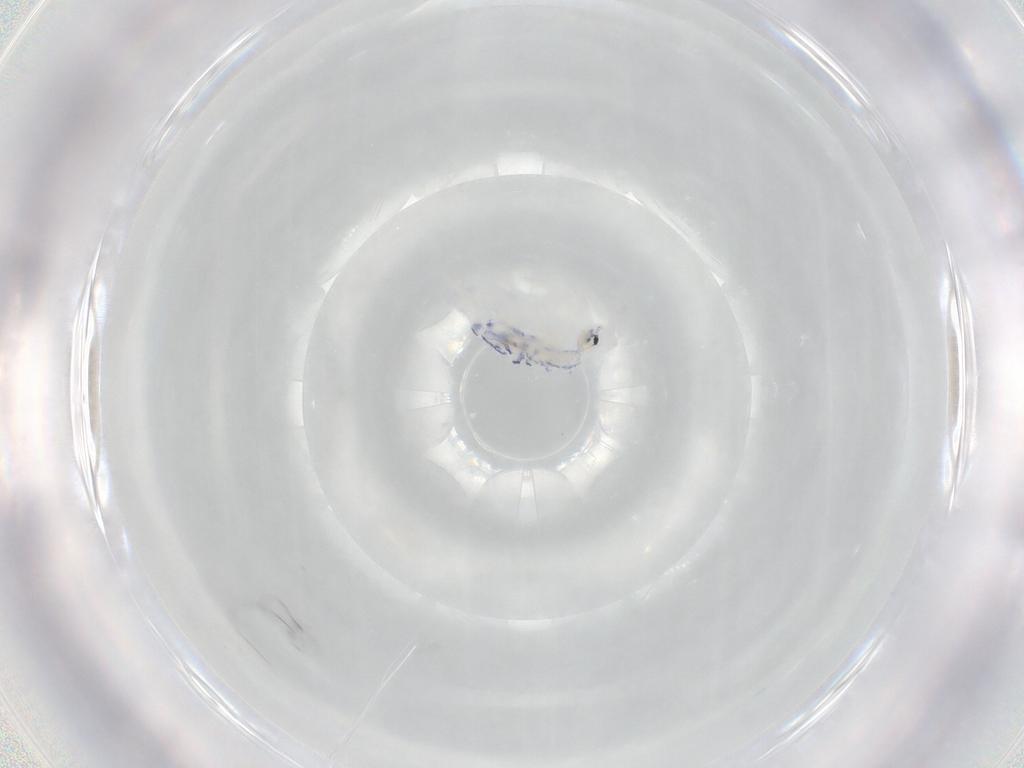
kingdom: Animalia
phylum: Arthropoda
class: Collembola
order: Entomobryomorpha
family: Entomobryidae
